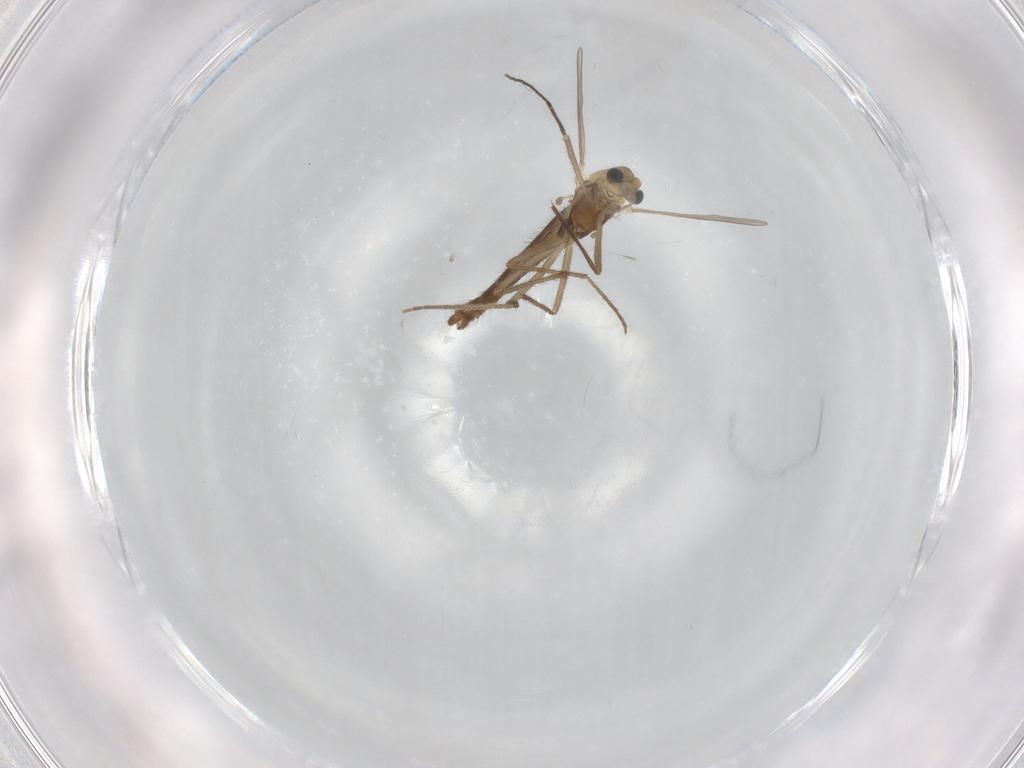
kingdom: Animalia
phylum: Arthropoda
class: Insecta
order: Diptera
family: Chironomidae
